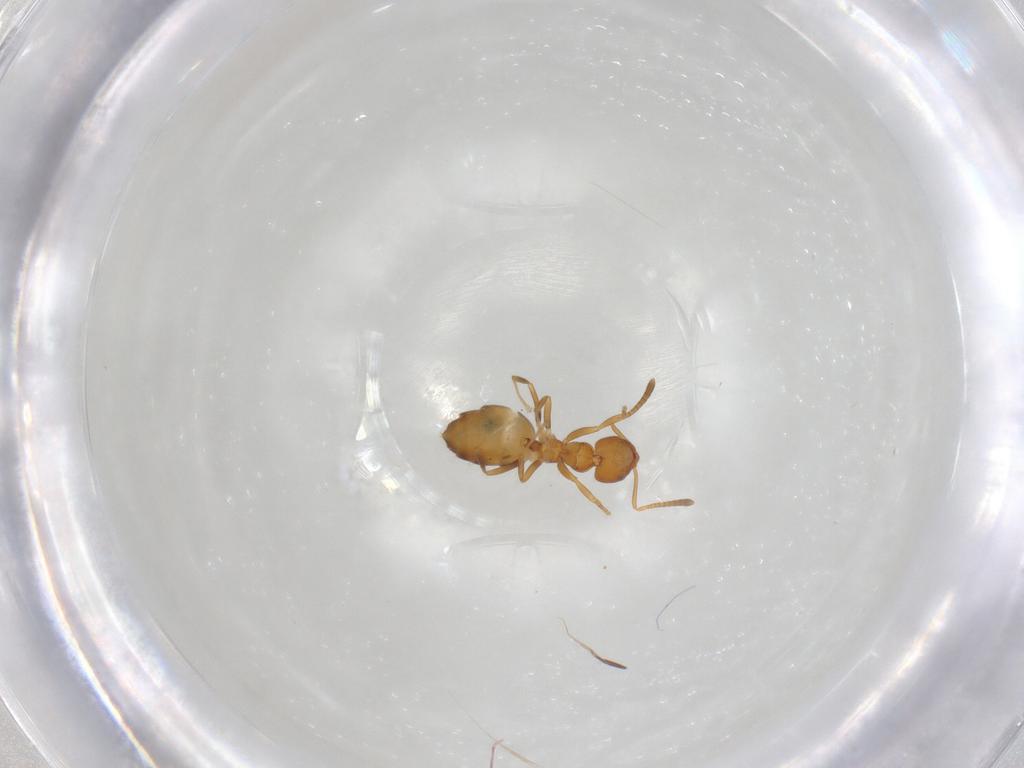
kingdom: Animalia
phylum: Arthropoda
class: Insecta
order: Hymenoptera
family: Formicidae
